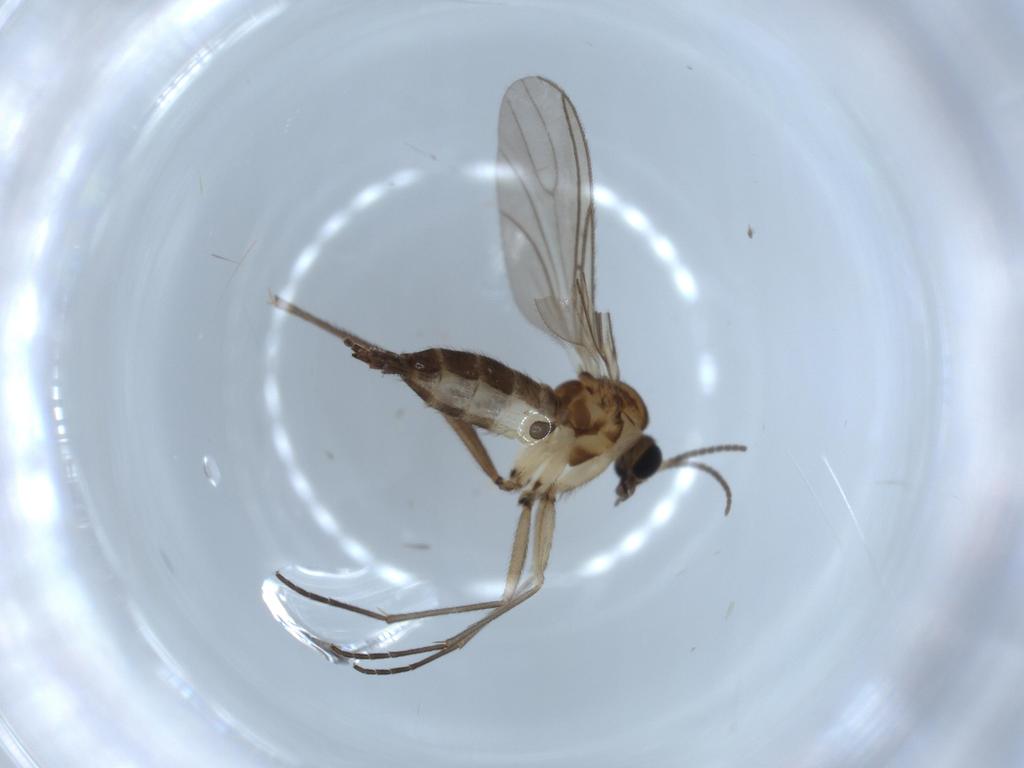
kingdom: Animalia
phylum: Arthropoda
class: Insecta
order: Diptera
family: Sciaridae
